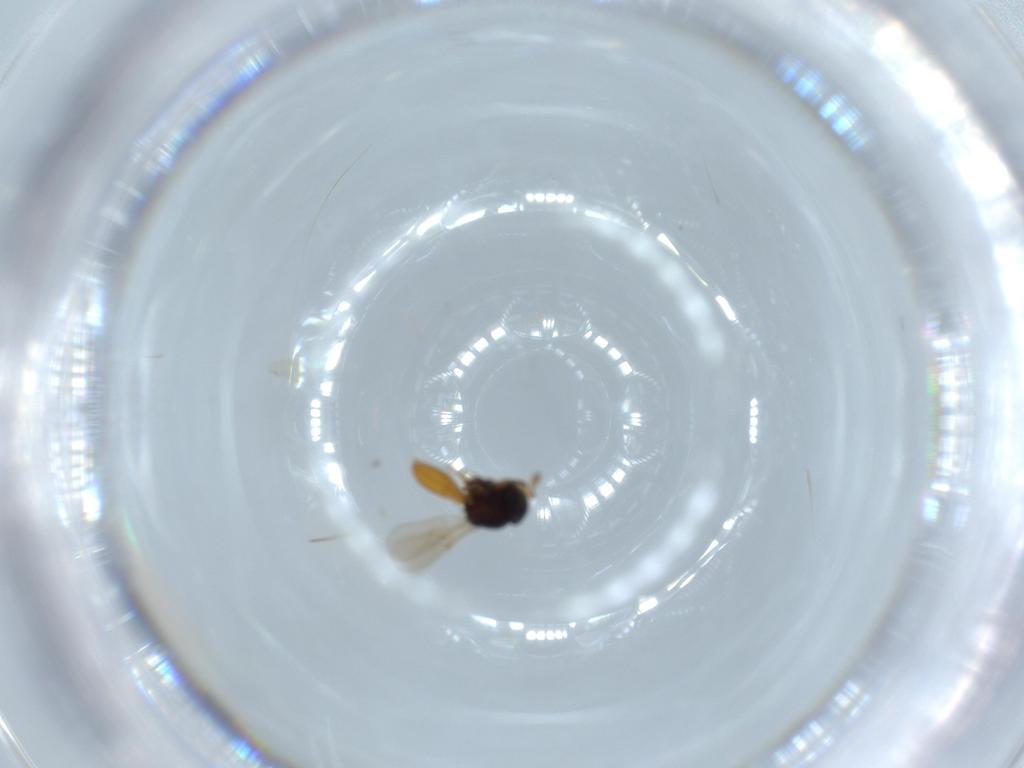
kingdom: Animalia
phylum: Arthropoda
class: Insecta
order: Hymenoptera
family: Scelionidae
